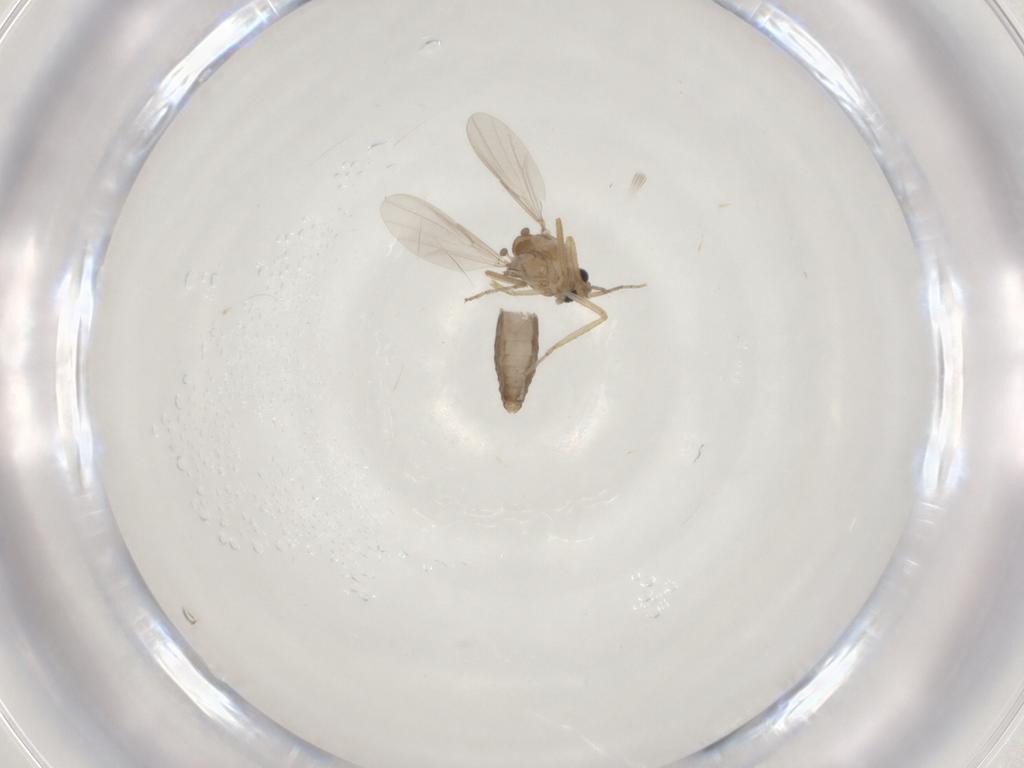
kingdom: Animalia
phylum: Arthropoda
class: Insecta
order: Diptera
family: Ceratopogonidae
